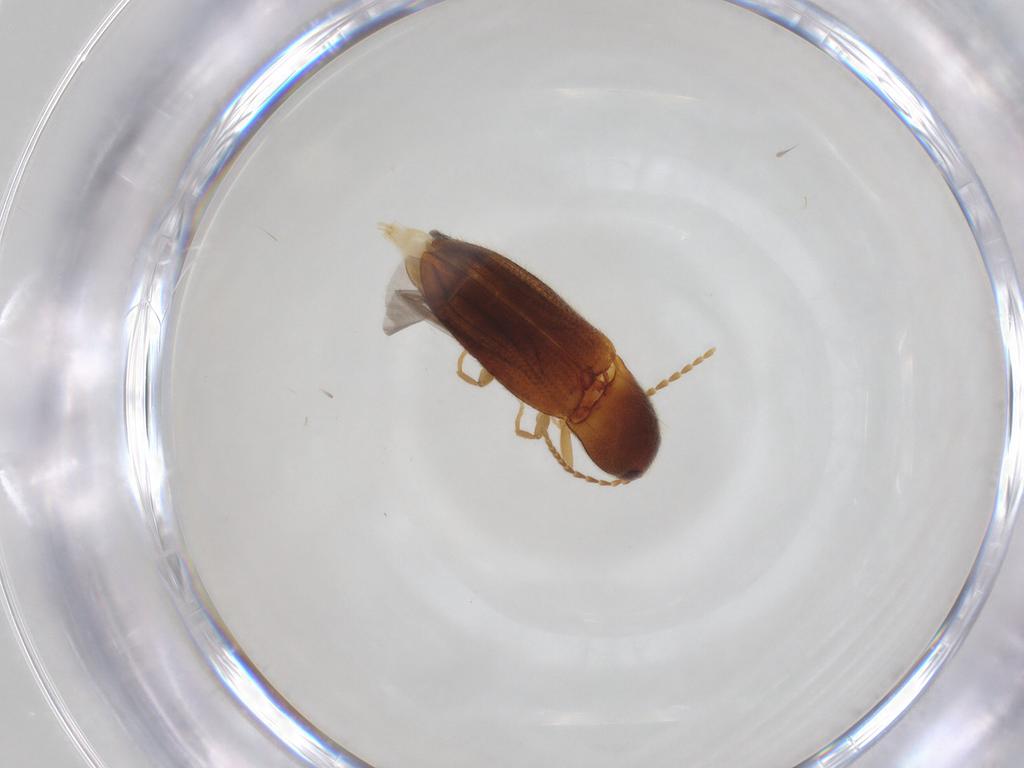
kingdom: Animalia
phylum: Arthropoda
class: Insecta
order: Coleoptera
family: Elateridae
